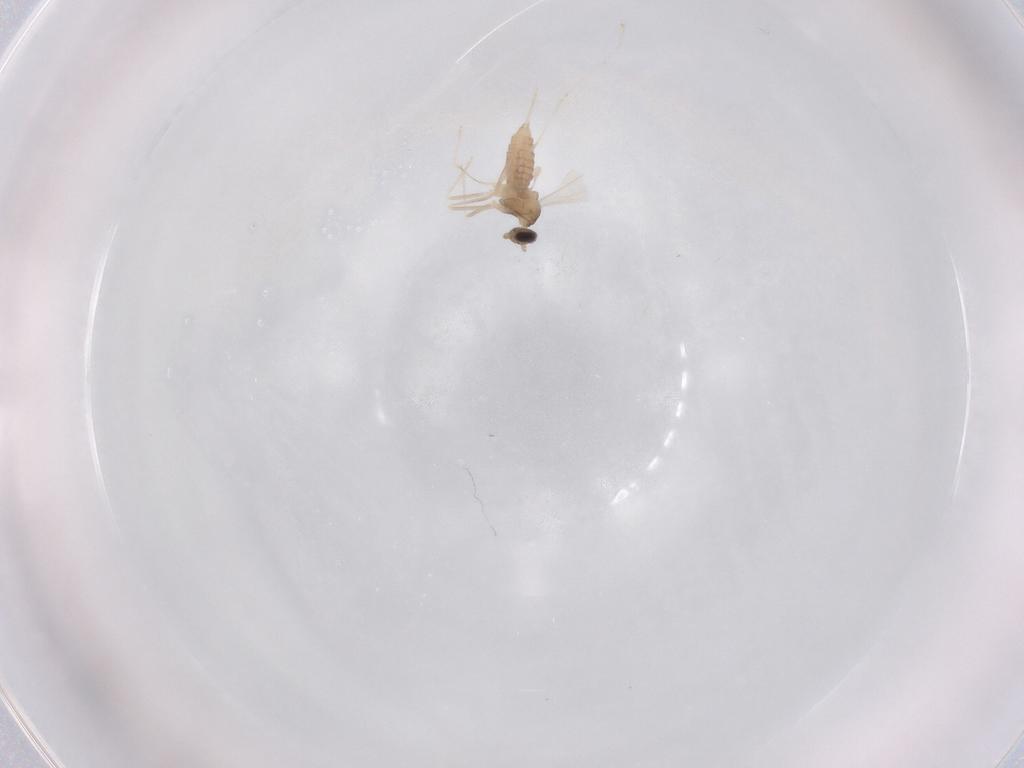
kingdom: Animalia
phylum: Arthropoda
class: Insecta
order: Diptera
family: Cecidomyiidae
